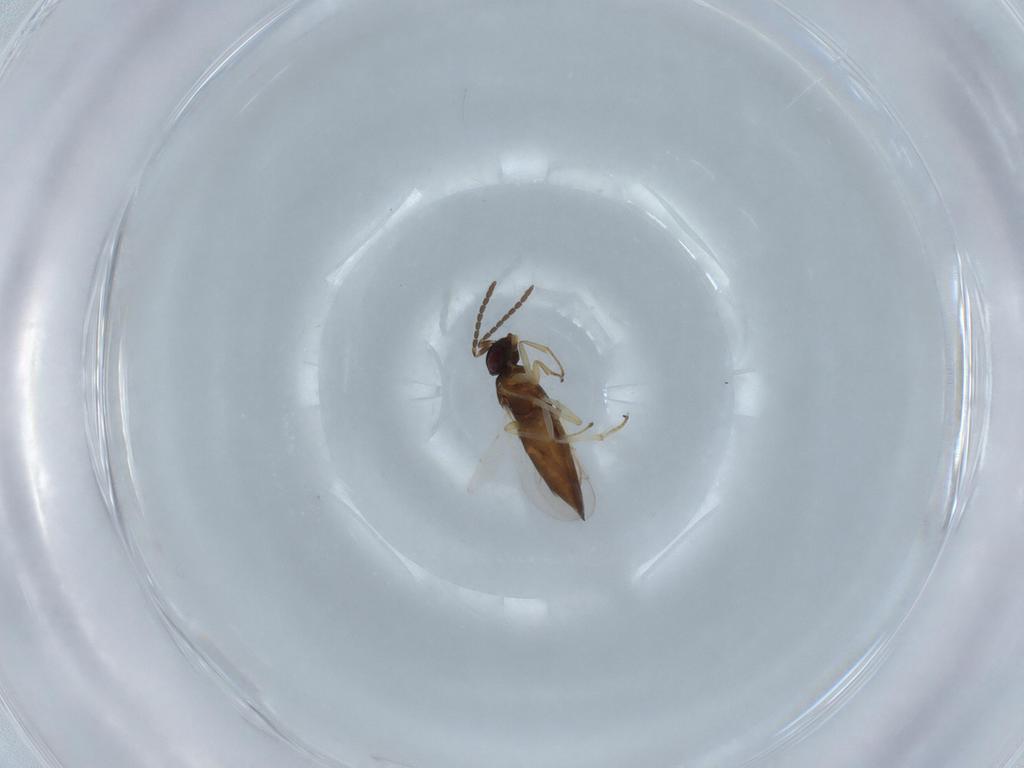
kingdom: Animalia
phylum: Arthropoda
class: Insecta
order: Hymenoptera
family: Encyrtidae
